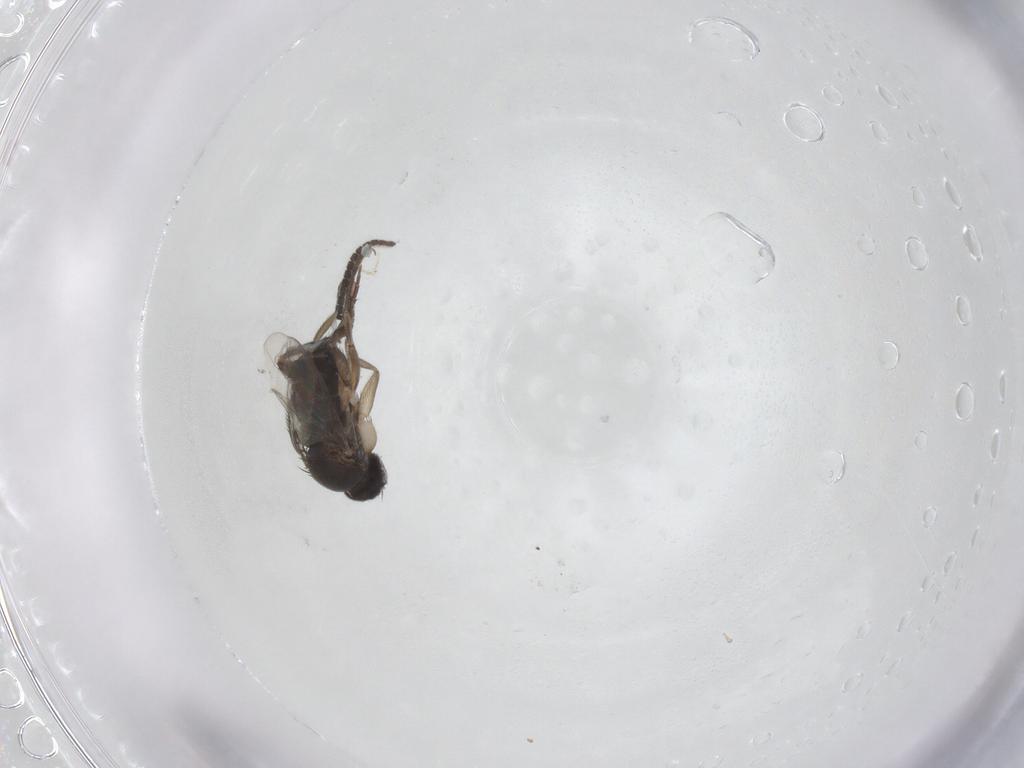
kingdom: Animalia
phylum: Arthropoda
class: Insecta
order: Diptera
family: Phoridae
